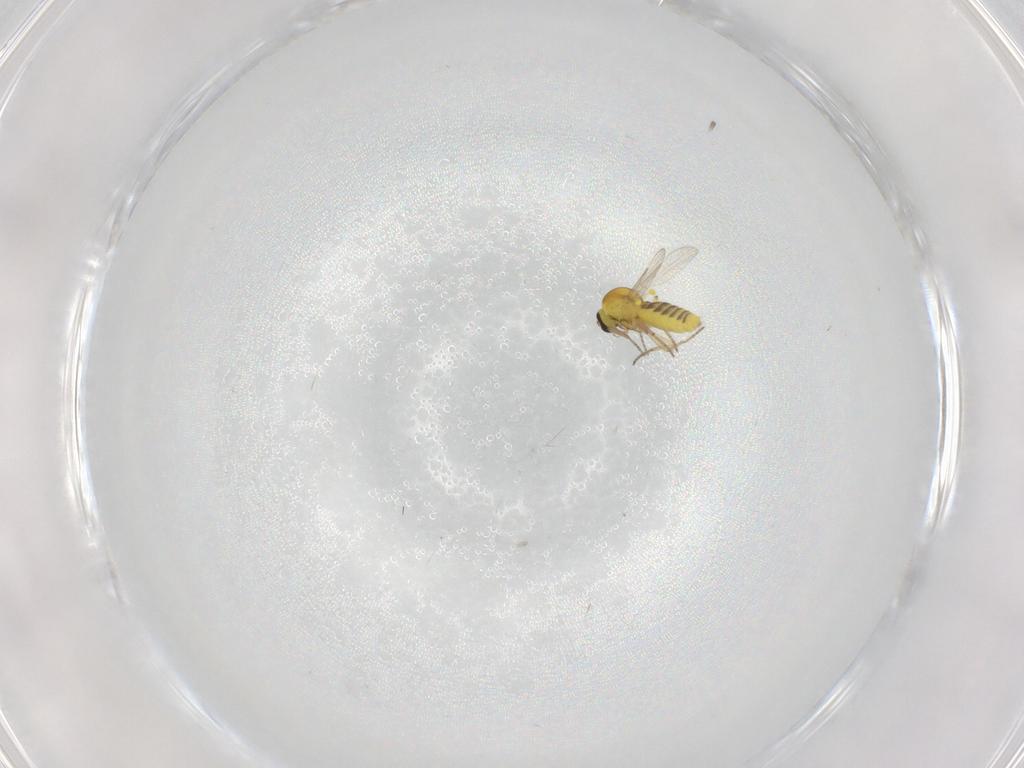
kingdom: Animalia
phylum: Arthropoda
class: Insecta
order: Diptera
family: Ceratopogonidae
